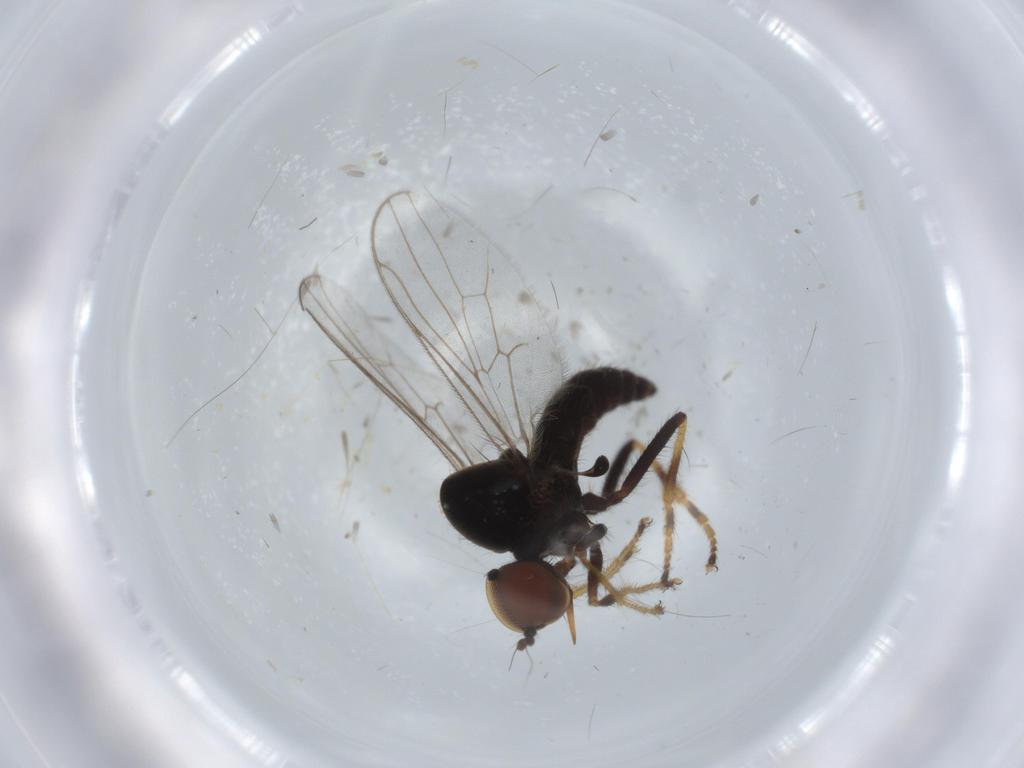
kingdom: Animalia
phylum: Arthropoda
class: Insecta
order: Diptera
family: Hybotidae
